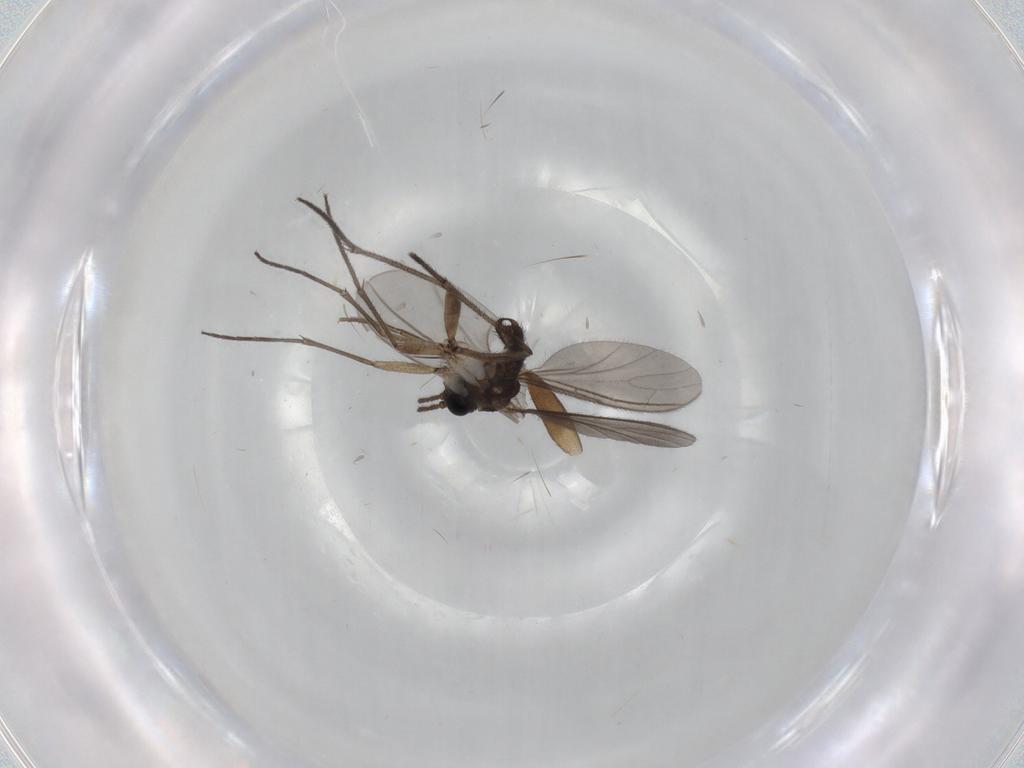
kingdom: Animalia
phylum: Arthropoda
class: Insecta
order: Diptera
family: Sciaridae
